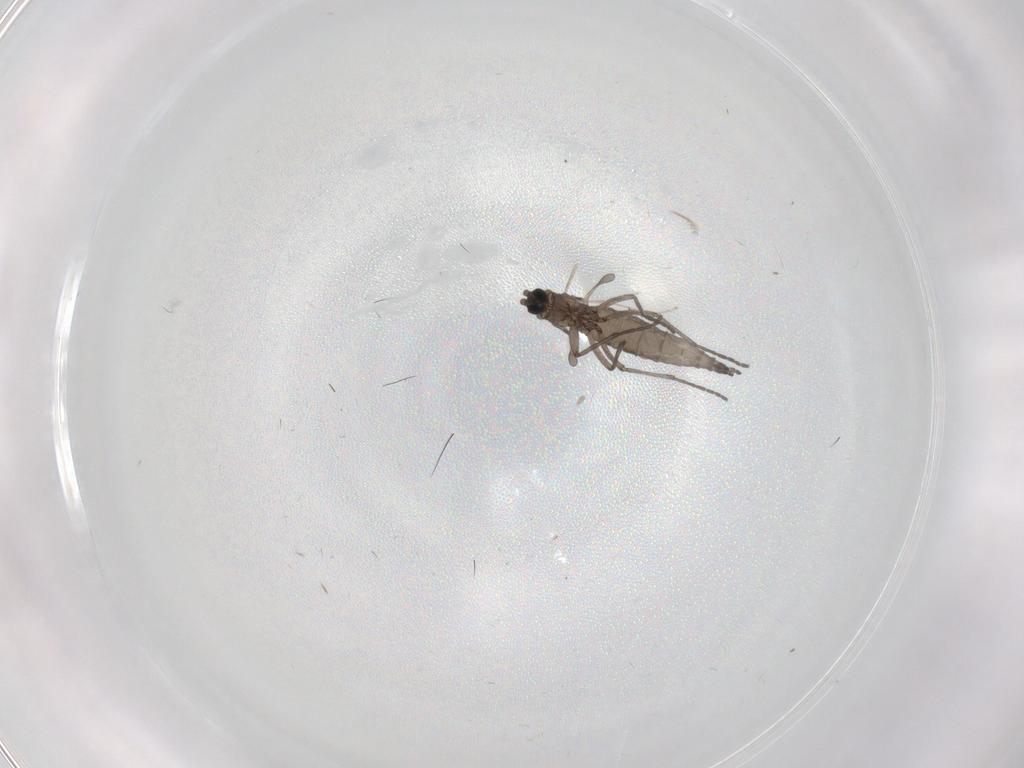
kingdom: Animalia
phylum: Arthropoda
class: Insecta
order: Diptera
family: Sciaridae
